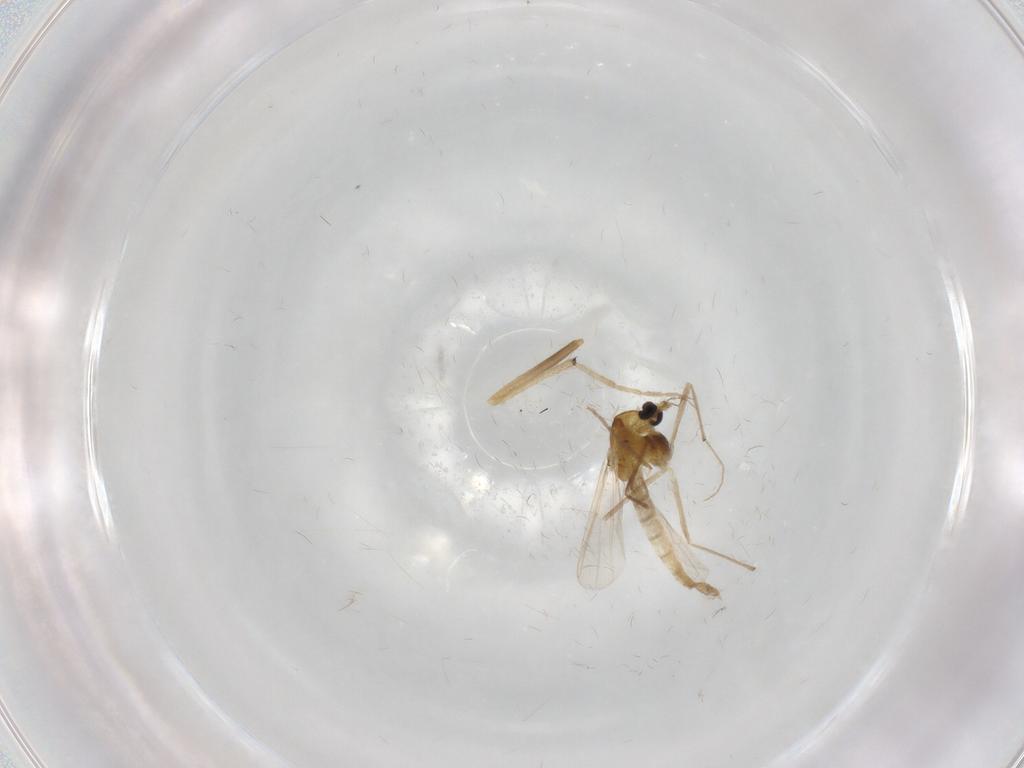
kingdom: Animalia
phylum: Arthropoda
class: Insecta
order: Diptera
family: Chironomidae
